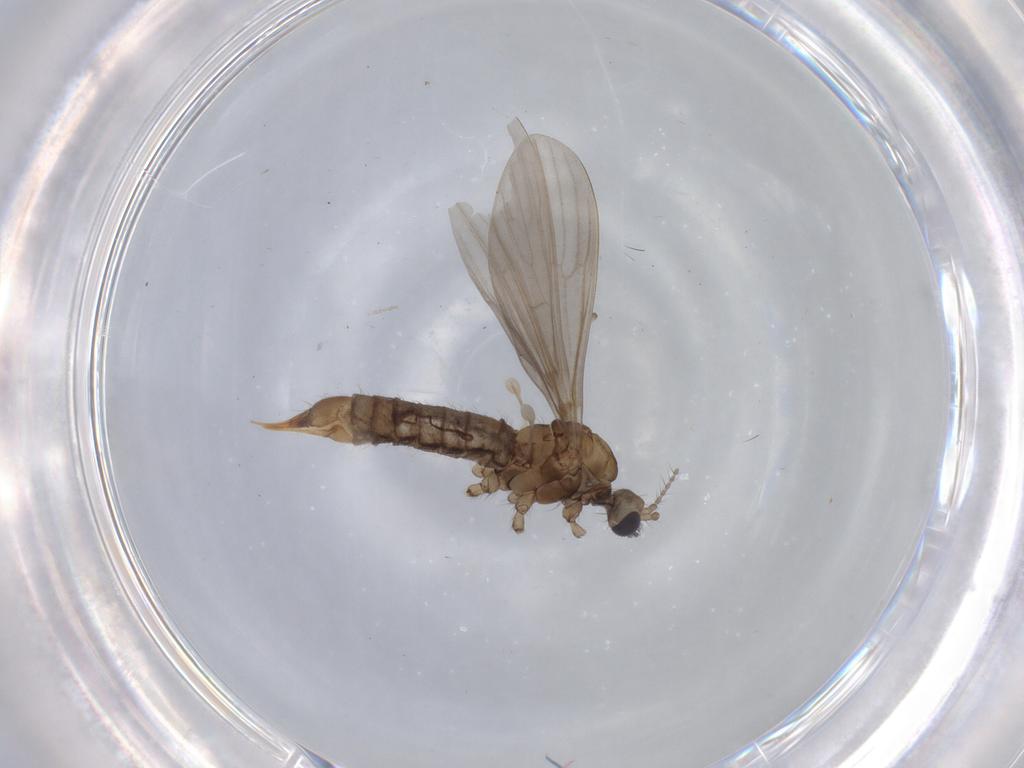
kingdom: Animalia
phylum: Arthropoda
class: Insecta
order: Diptera
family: Limoniidae
